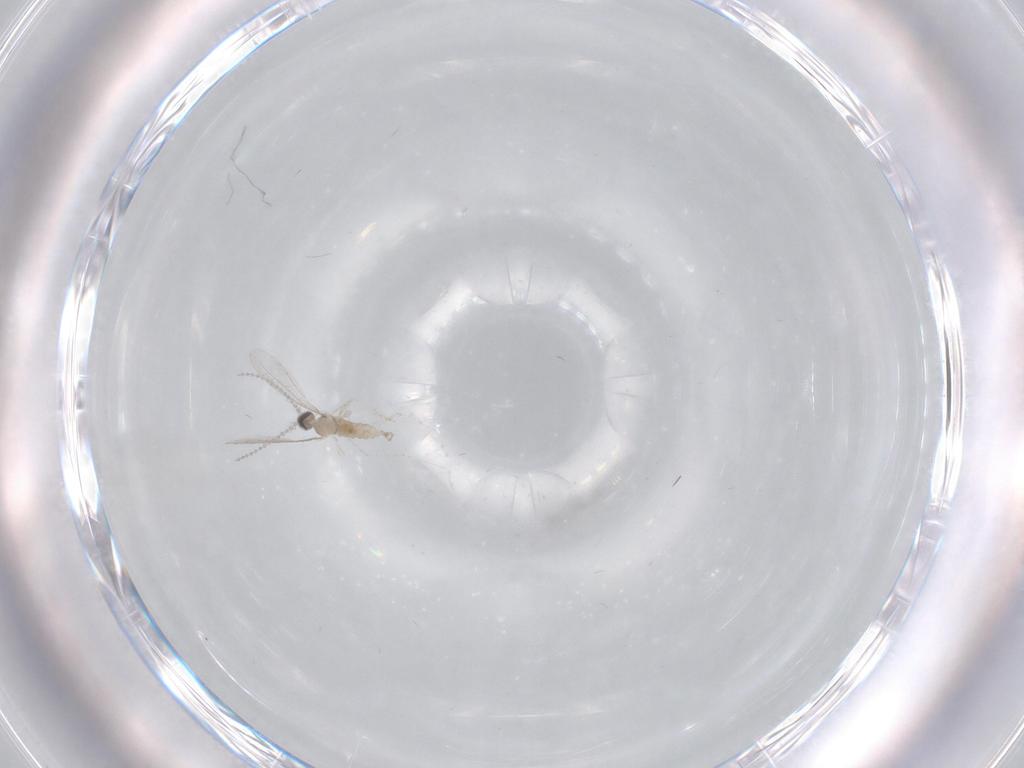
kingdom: Animalia
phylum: Arthropoda
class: Insecta
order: Diptera
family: Cecidomyiidae
